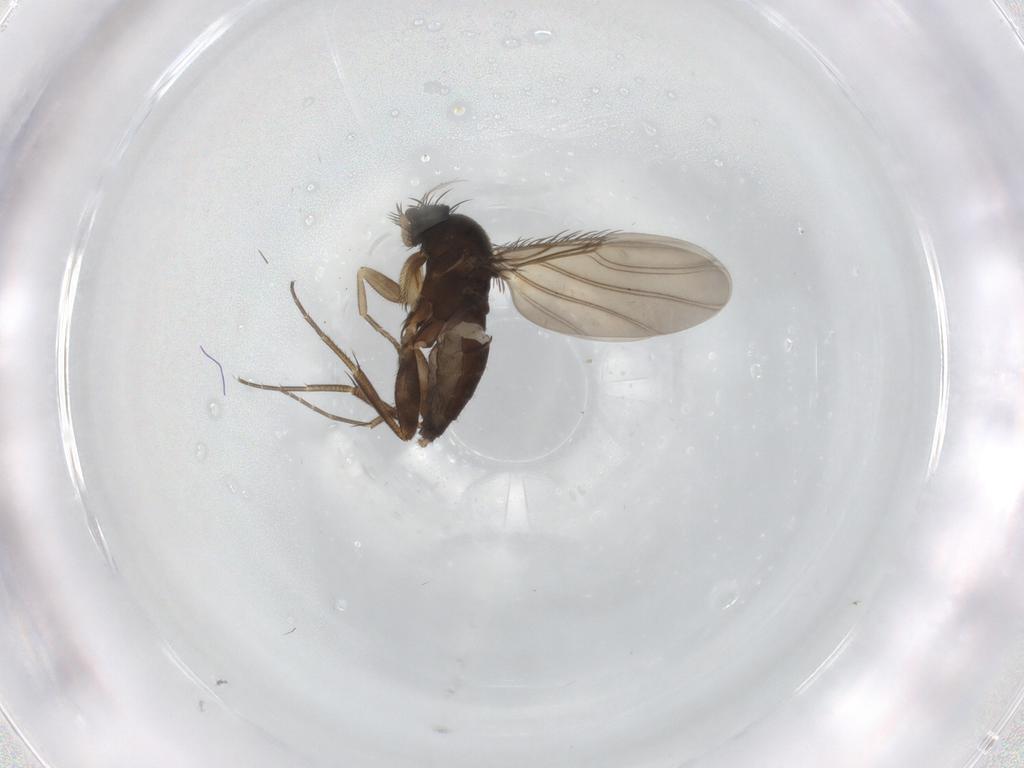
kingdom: Animalia
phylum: Arthropoda
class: Insecta
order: Diptera
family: Phoridae
